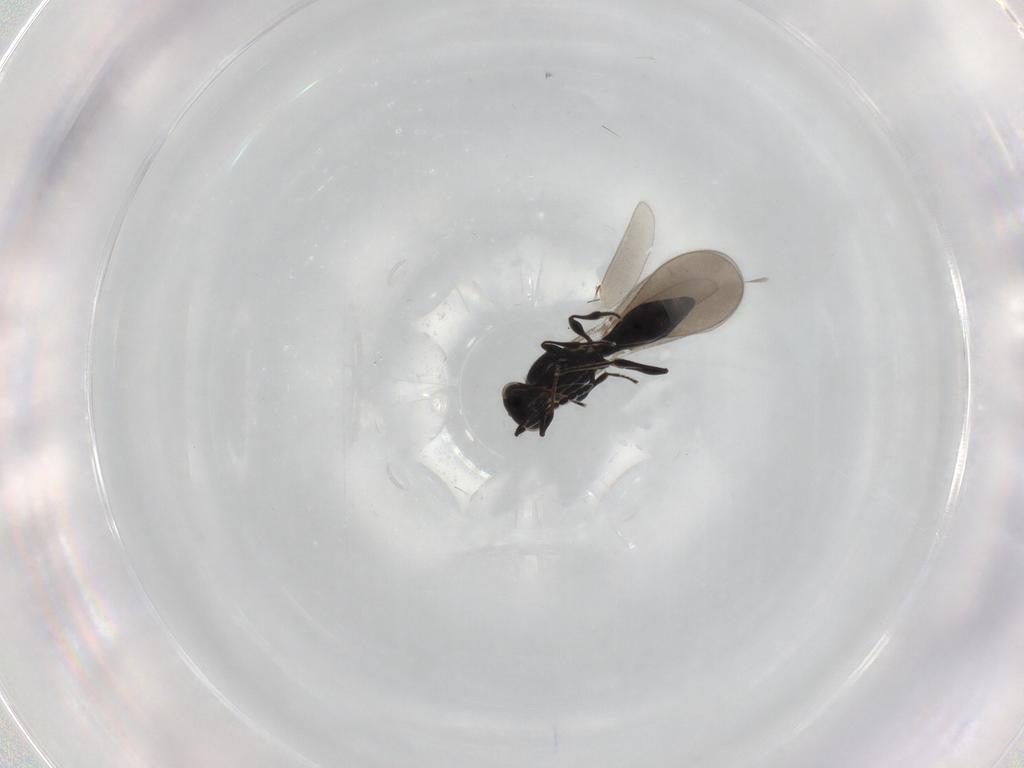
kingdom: Animalia
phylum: Arthropoda
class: Insecta
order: Hymenoptera
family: Platygastridae
